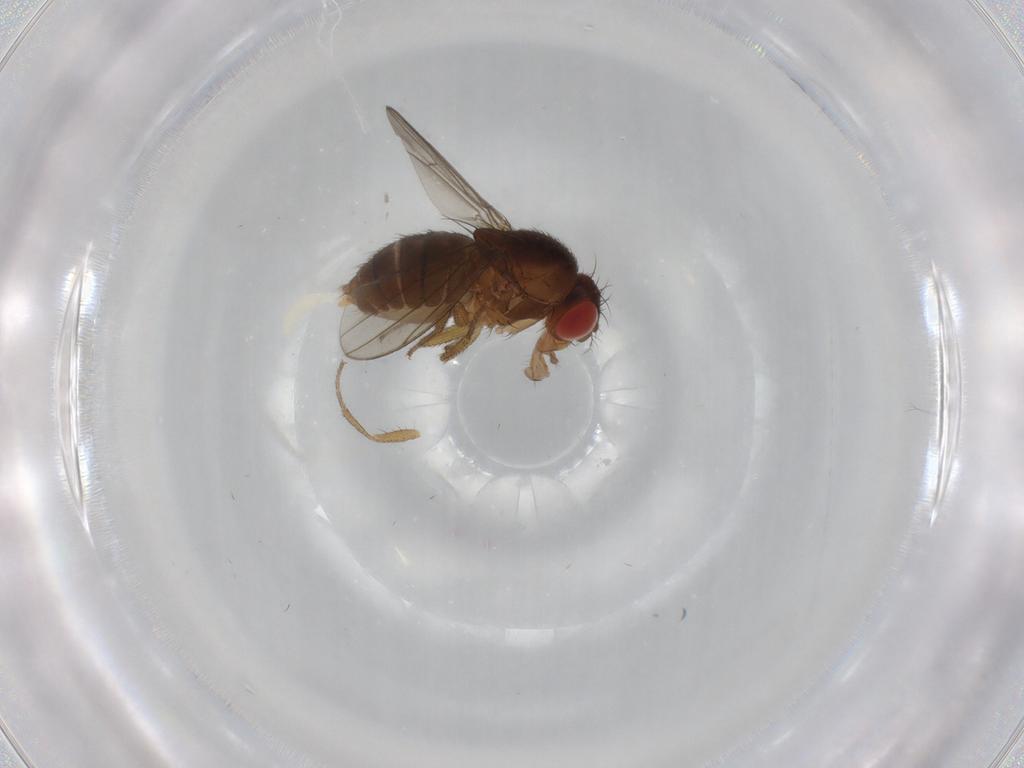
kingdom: Animalia
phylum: Arthropoda
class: Insecta
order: Diptera
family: Drosophilidae
